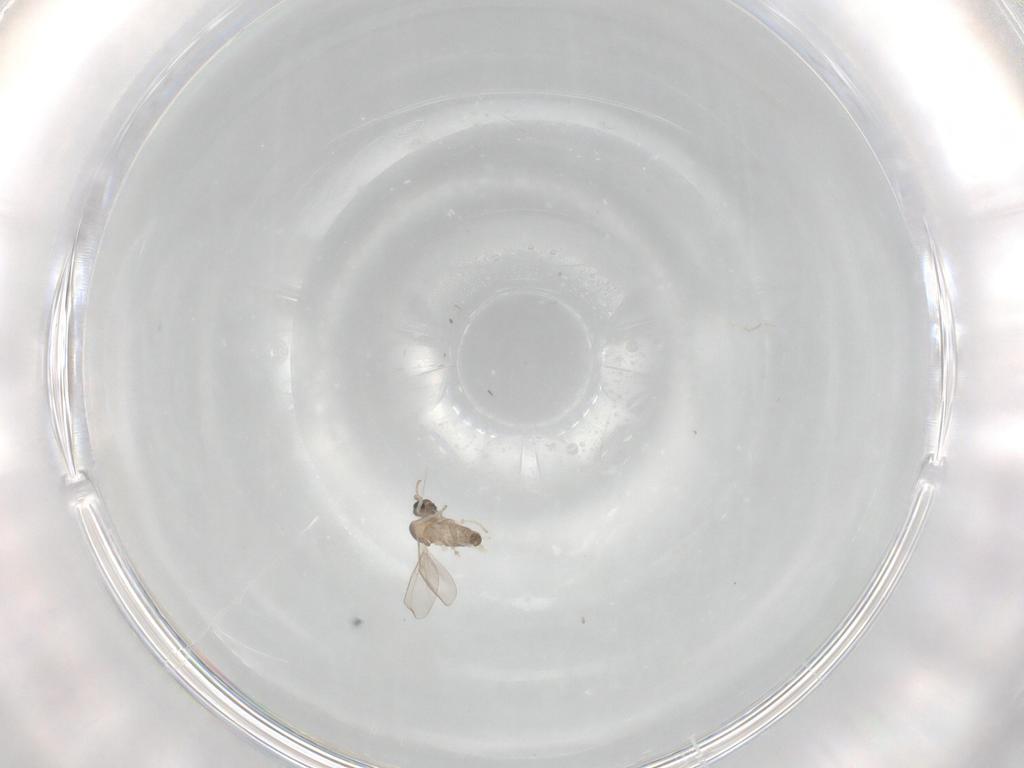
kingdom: Animalia
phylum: Arthropoda
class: Insecta
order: Diptera
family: Cecidomyiidae
